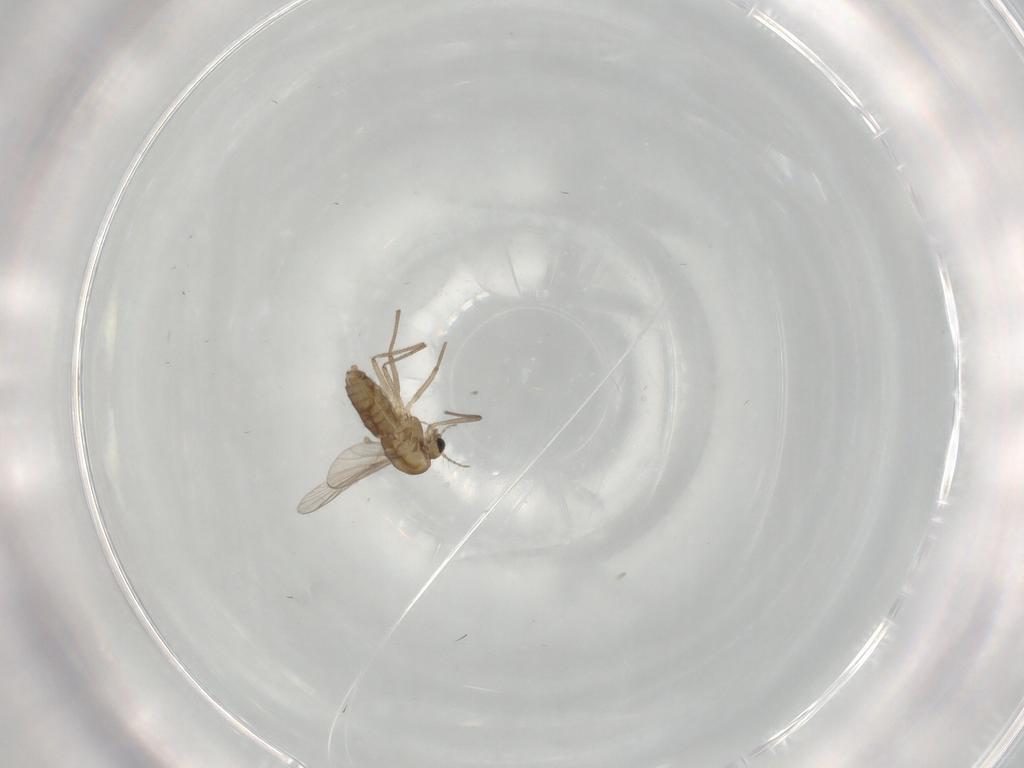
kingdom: Animalia
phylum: Arthropoda
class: Insecta
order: Diptera
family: Chironomidae
